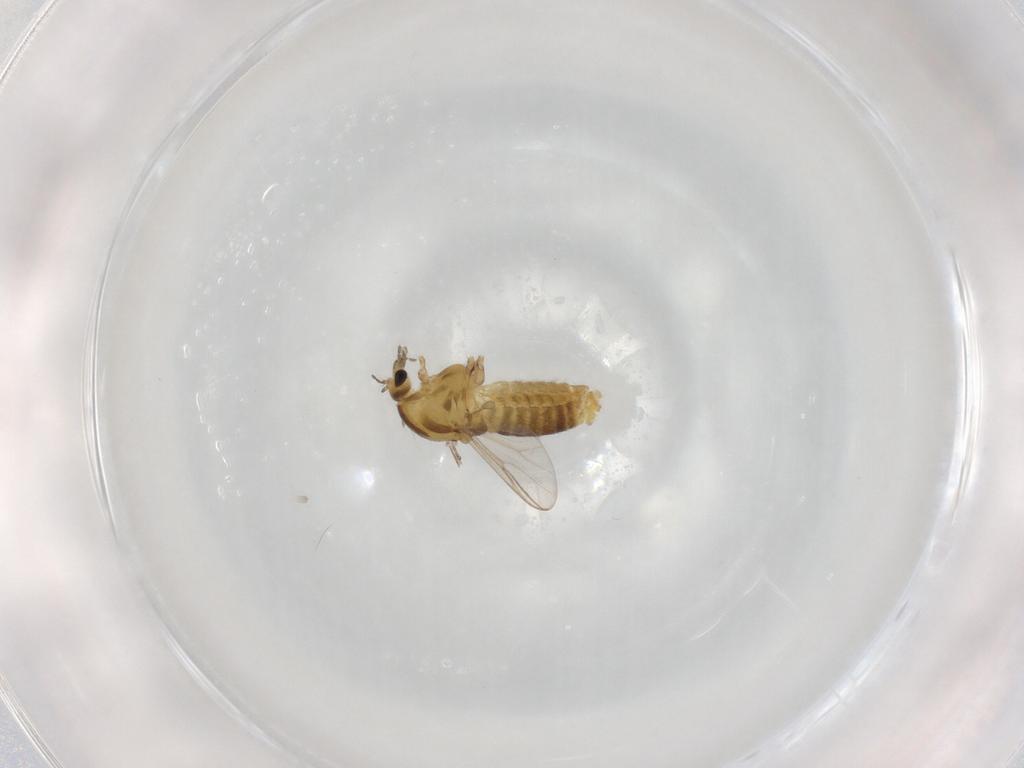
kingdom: Animalia
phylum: Arthropoda
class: Insecta
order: Diptera
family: Chironomidae
